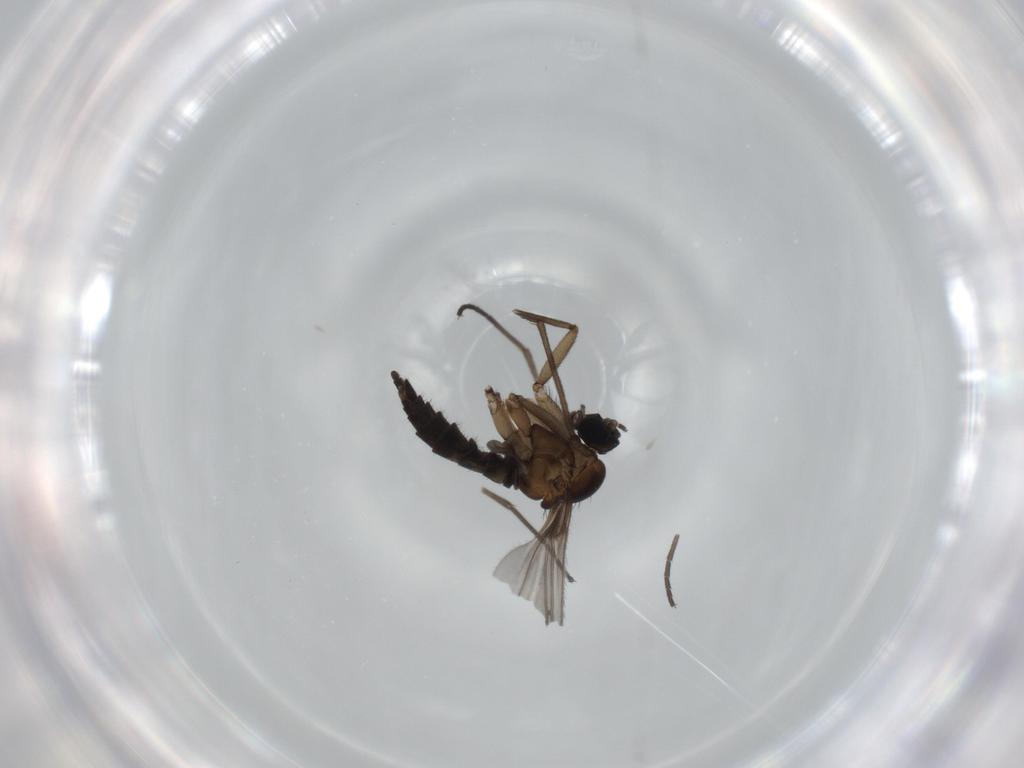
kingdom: Animalia
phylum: Arthropoda
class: Insecta
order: Diptera
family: Sciaridae
